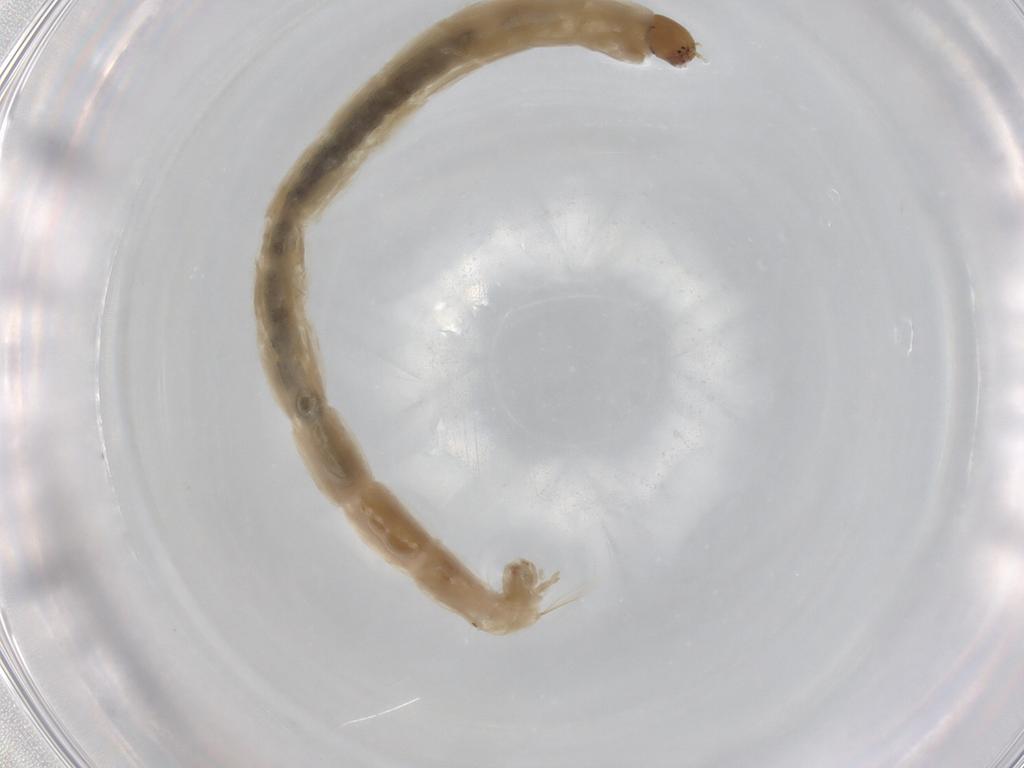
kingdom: Animalia
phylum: Arthropoda
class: Insecta
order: Diptera
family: Chironomidae
